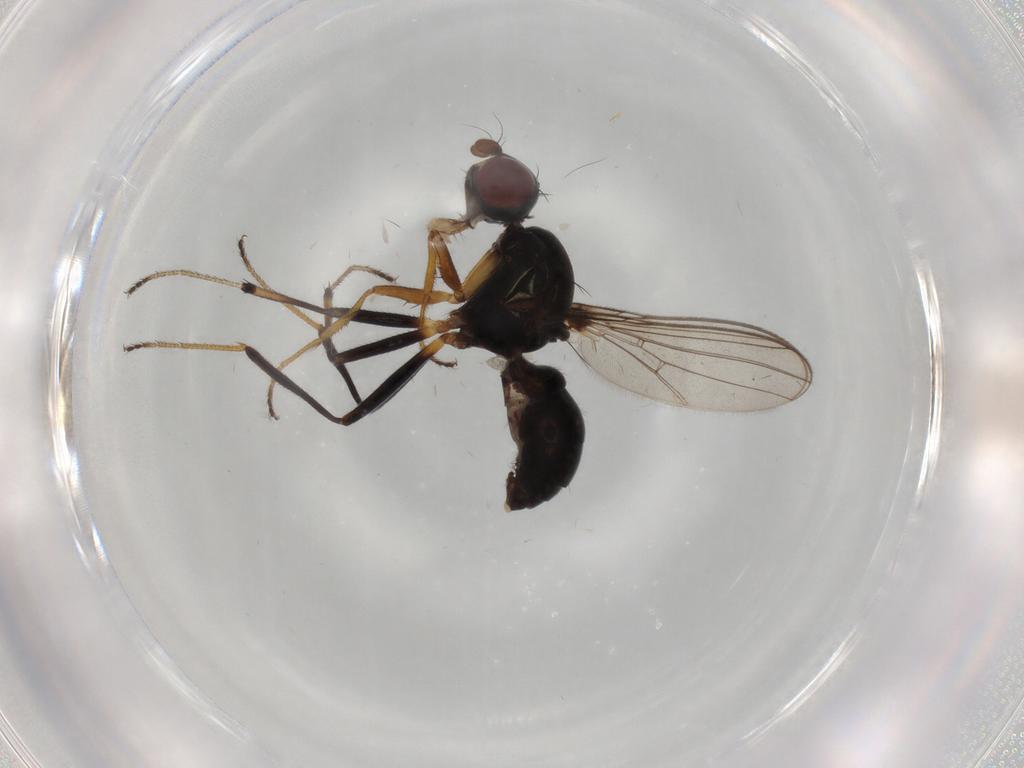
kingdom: Animalia
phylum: Arthropoda
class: Insecta
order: Diptera
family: Sepsidae
